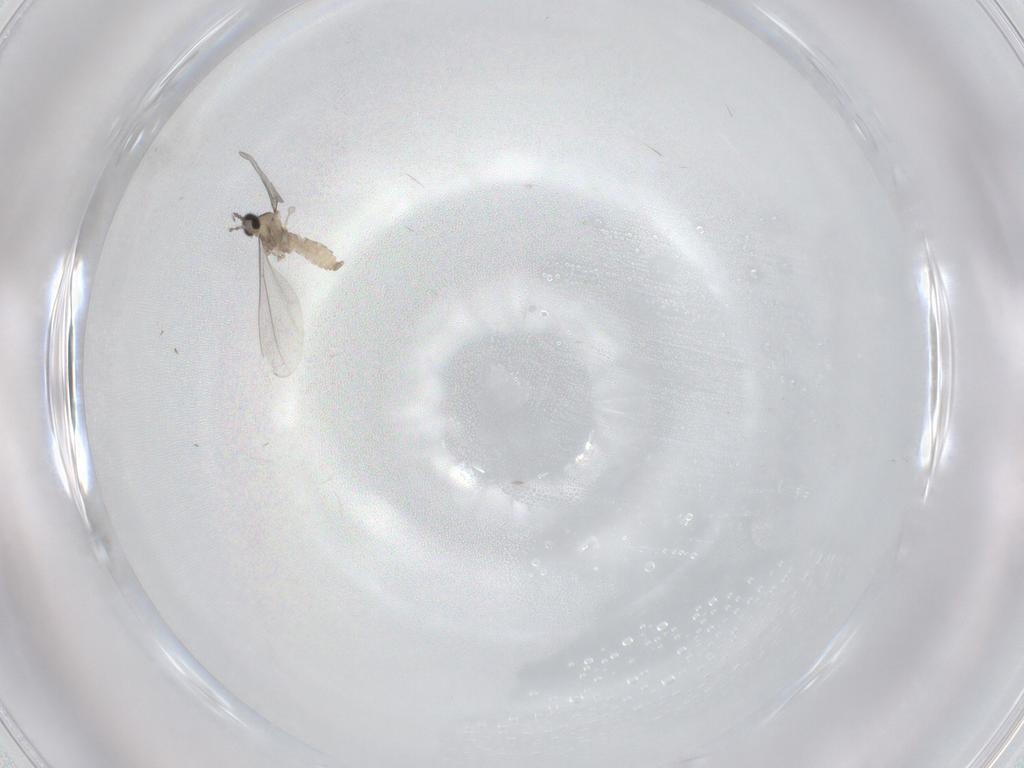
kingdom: Animalia
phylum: Arthropoda
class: Insecta
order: Diptera
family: Cecidomyiidae
